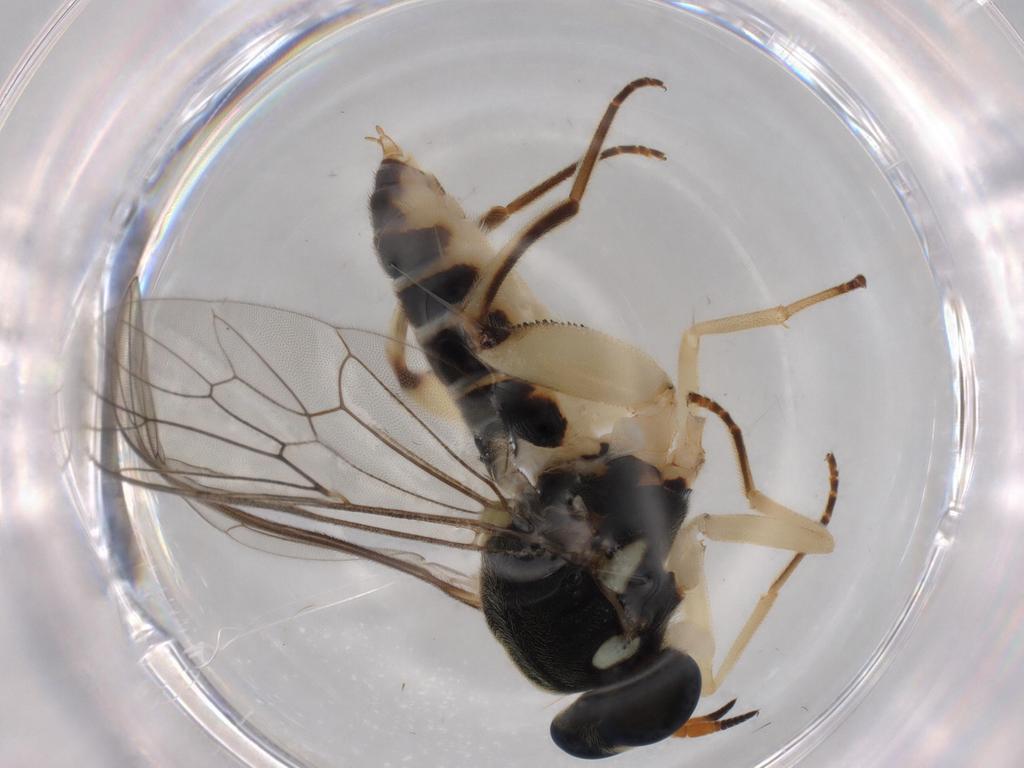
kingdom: Animalia
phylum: Arthropoda
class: Insecta
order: Diptera
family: Xylomyidae
